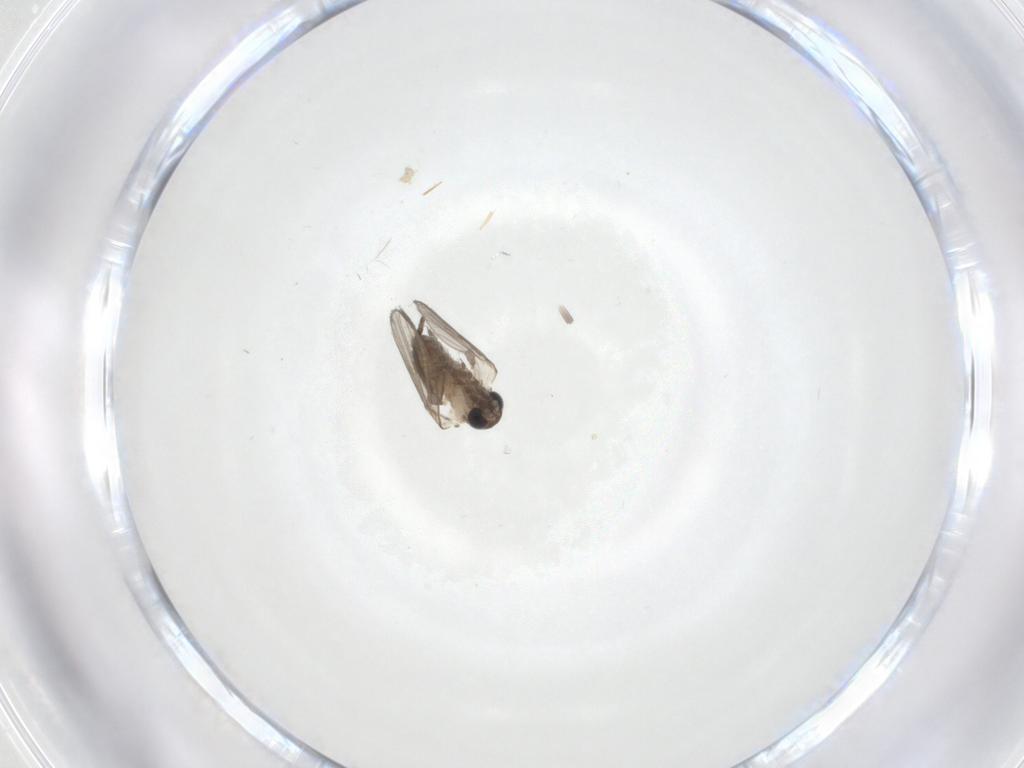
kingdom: Animalia
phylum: Arthropoda
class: Insecta
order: Diptera
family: Psychodidae
